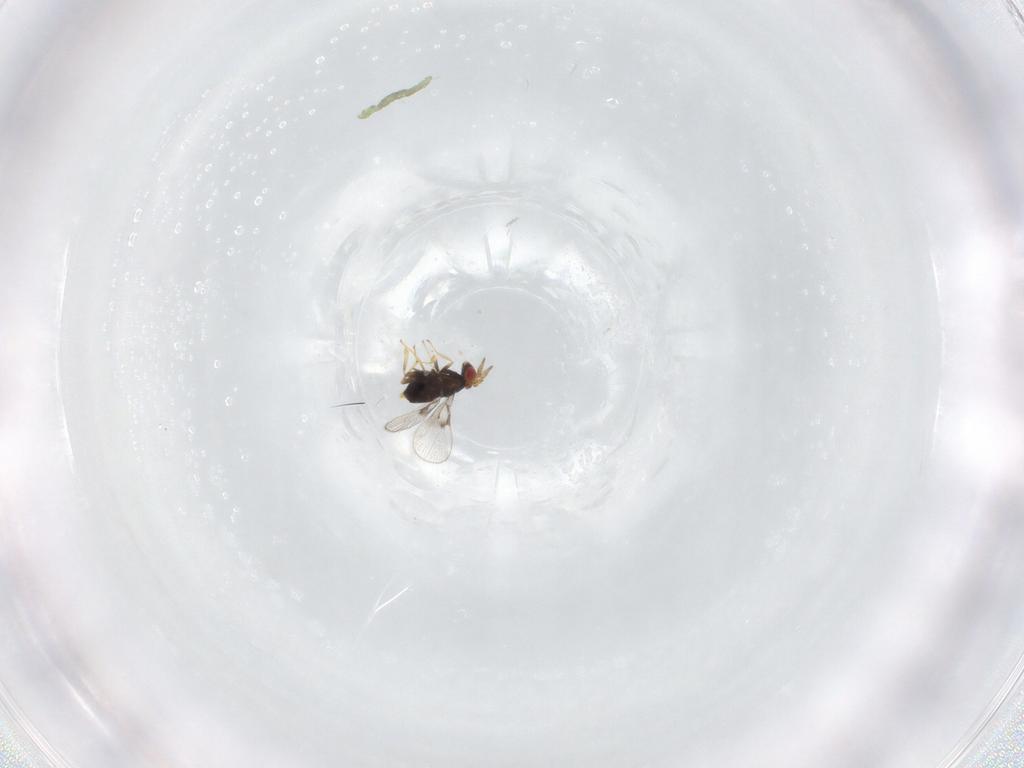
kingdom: Animalia
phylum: Arthropoda
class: Insecta
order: Hymenoptera
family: Trichogrammatidae
